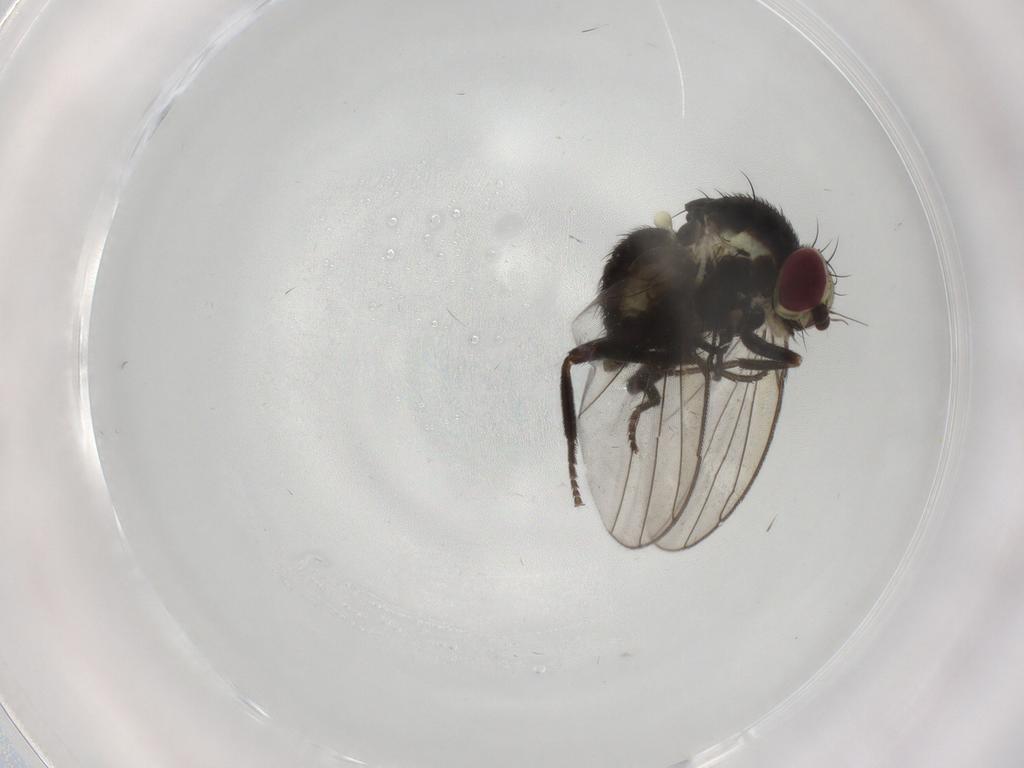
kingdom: Animalia
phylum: Arthropoda
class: Insecta
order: Diptera
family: Agromyzidae
